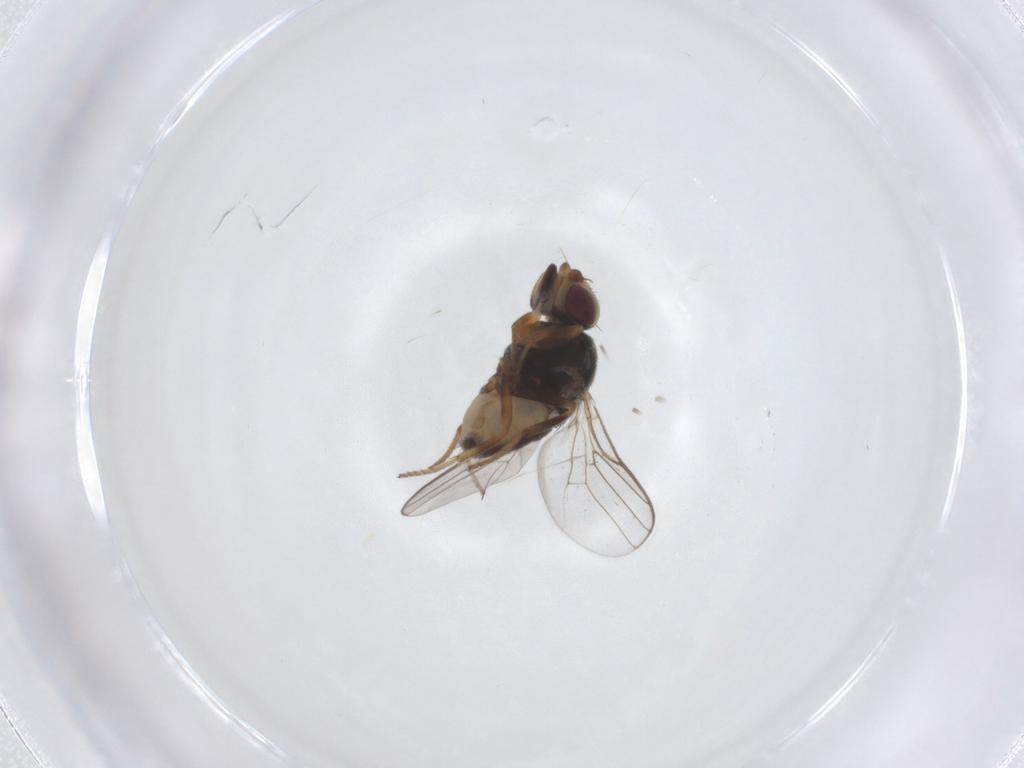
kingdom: Animalia
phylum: Arthropoda
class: Insecta
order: Diptera
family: Chloropidae
